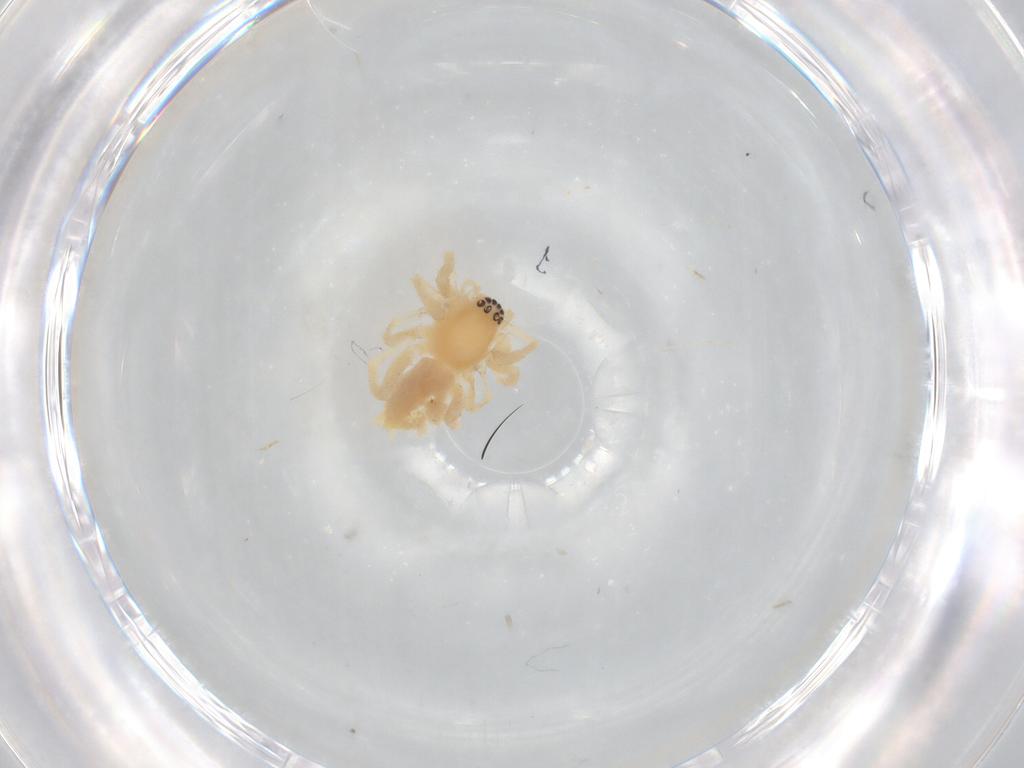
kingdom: Animalia
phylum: Arthropoda
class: Arachnida
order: Araneae
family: Anyphaenidae
